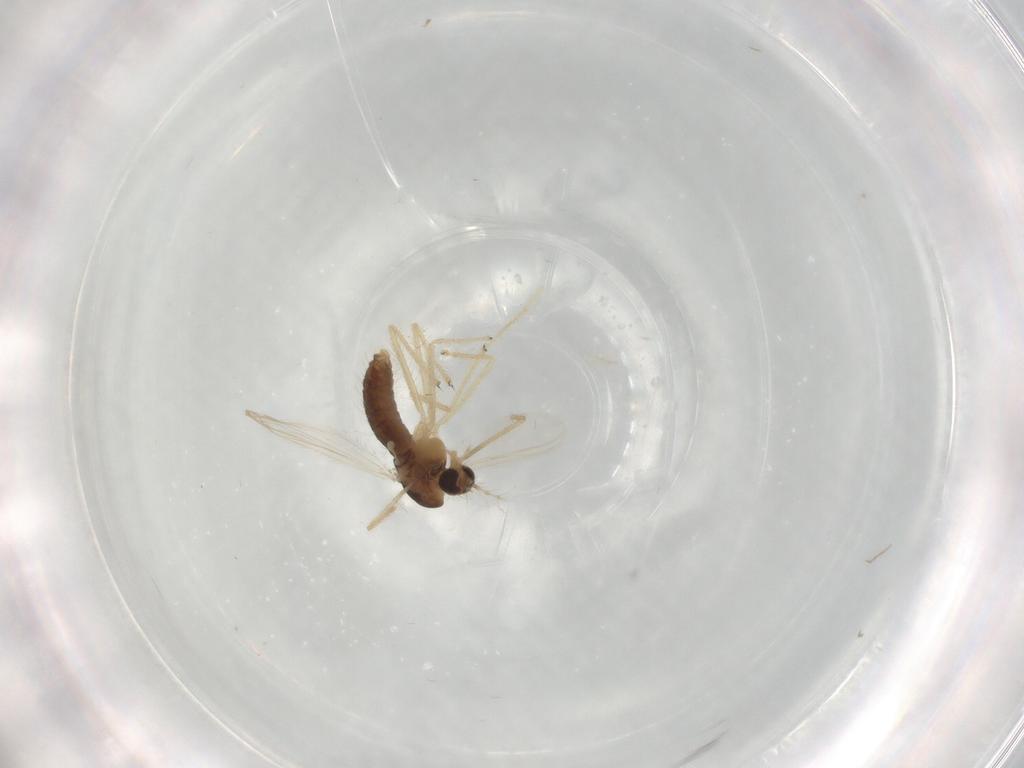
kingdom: Animalia
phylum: Arthropoda
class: Insecta
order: Diptera
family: Chironomidae
